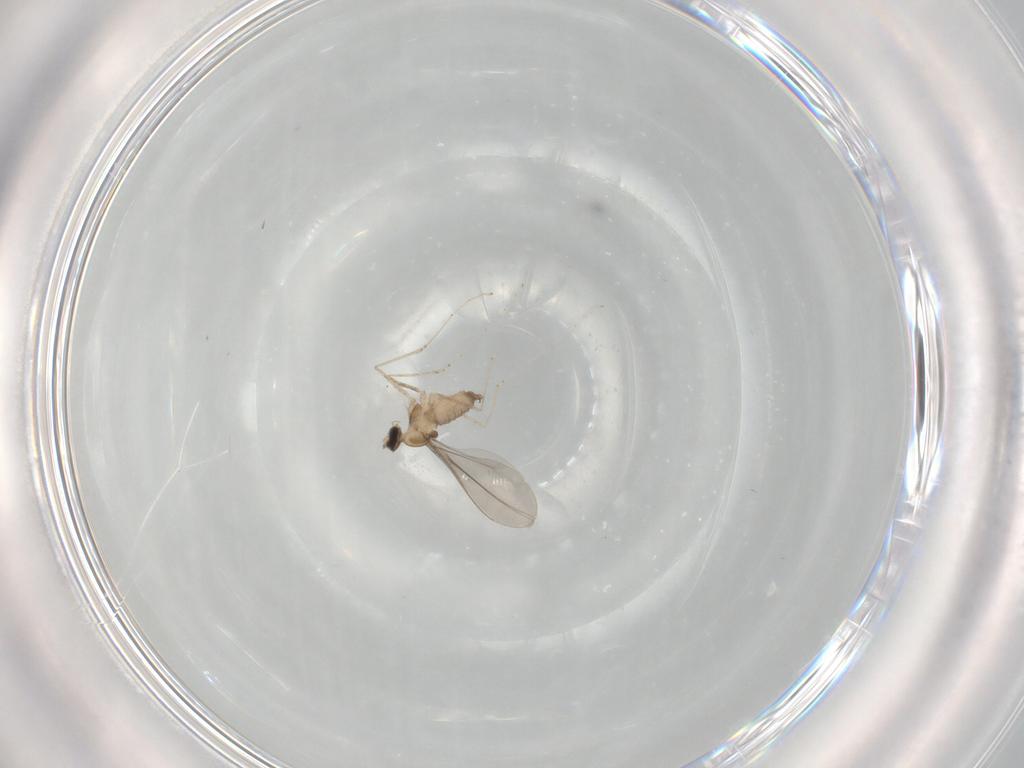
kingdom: Animalia
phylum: Arthropoda
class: Insecta
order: Diptera
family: Cecidomyiidae
